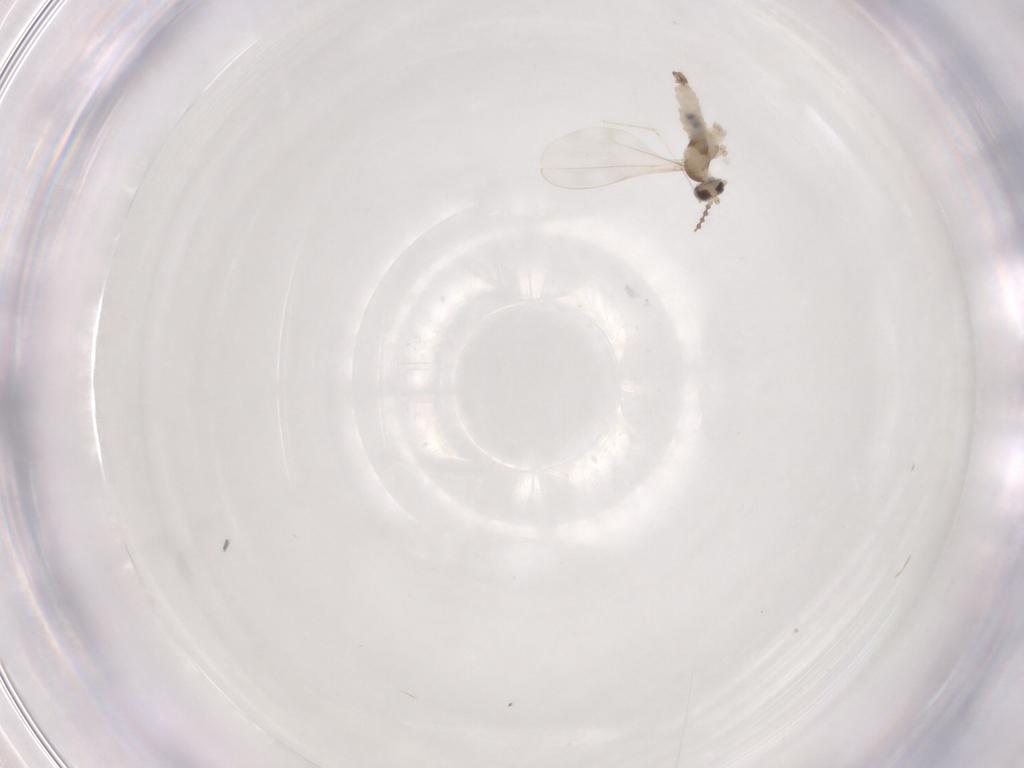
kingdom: Animalia
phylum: Arthropoda
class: Insecta
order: Diptera
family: Cecidomyiidae
